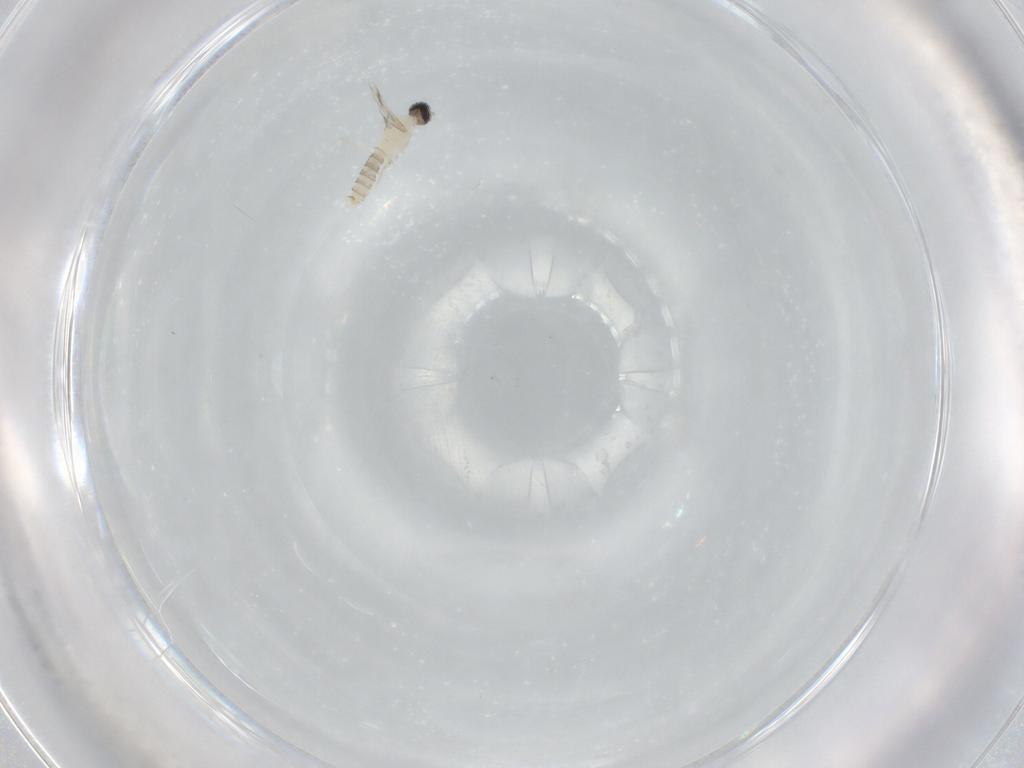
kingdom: Animalia
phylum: Arthropoda
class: Insecta
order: Diptera
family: Cecidomyiidae
